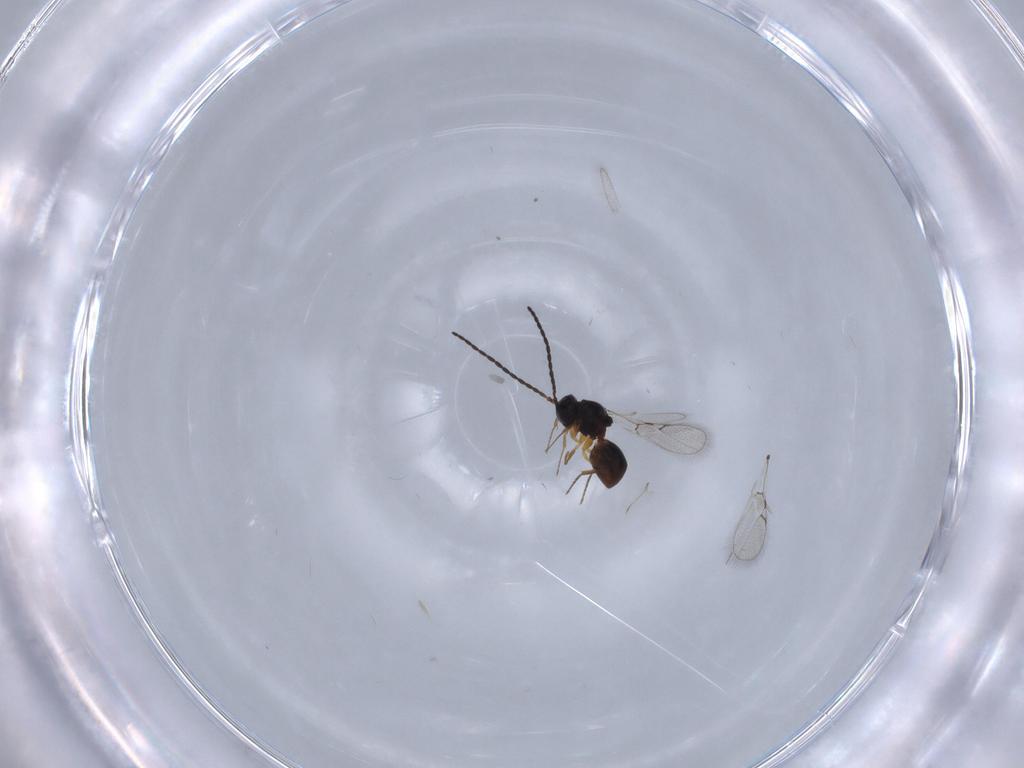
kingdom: Animalia
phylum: Arthropoda
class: Insecta
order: Hymenoptera
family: Figitidae
